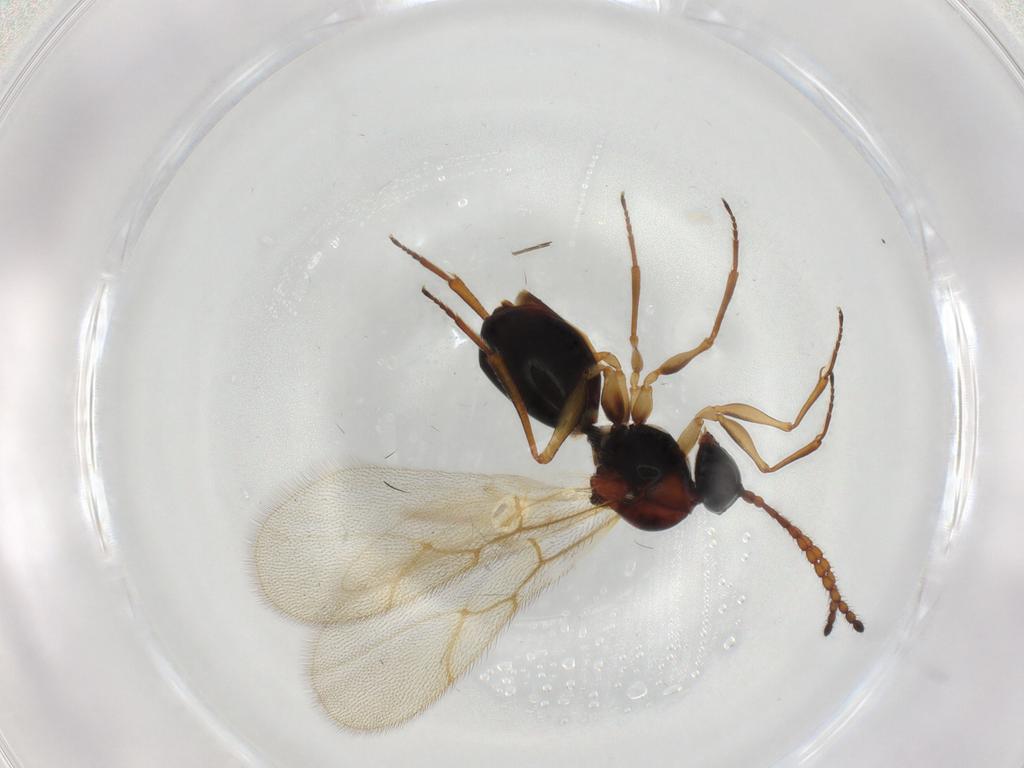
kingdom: Animalia
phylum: Arthropoda
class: Insecta
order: Hymenoptera
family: Figitidae
